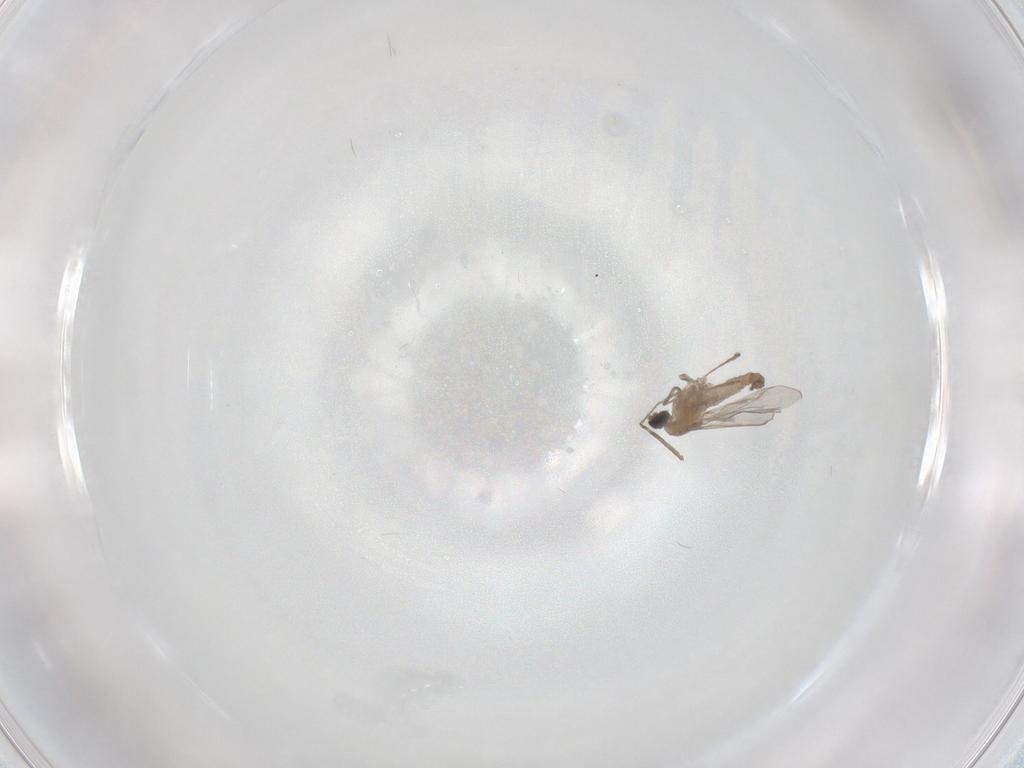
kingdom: Animalia
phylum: Arthropoda
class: Insecta
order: Diptera
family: Cecidomyiidae
